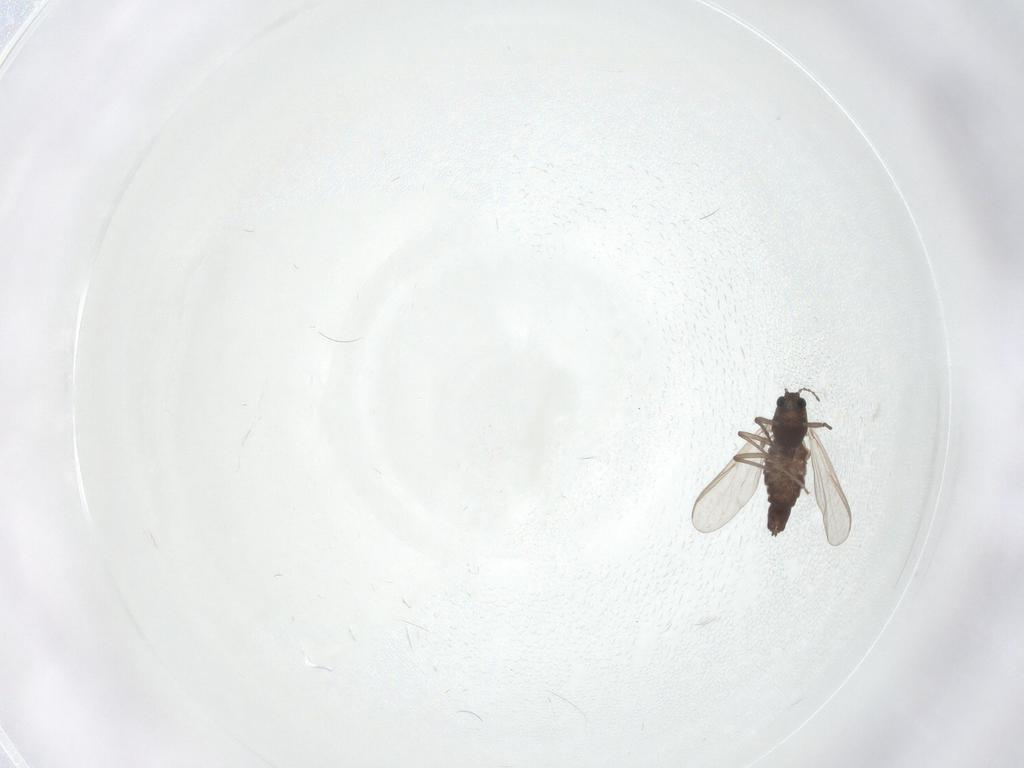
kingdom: Animalia
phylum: Arthropoda
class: Insecta
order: Diptera
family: Chironomidae
